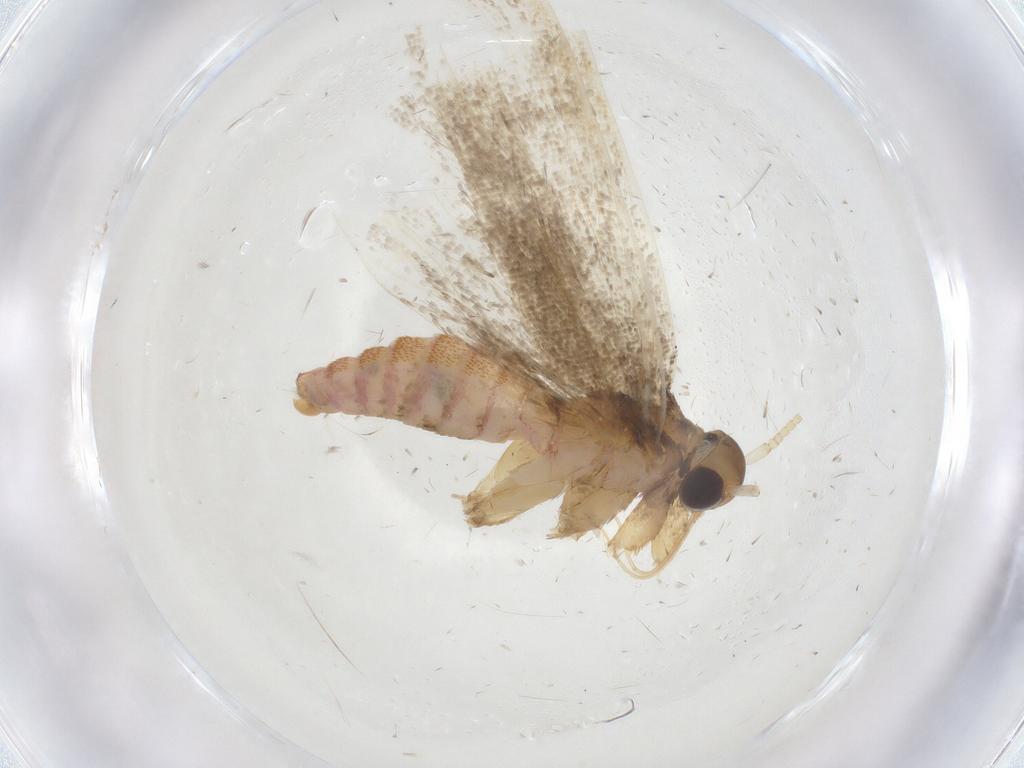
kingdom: Animalia
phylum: Arthropoda
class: Insecta
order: Lepidoptera
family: Lecithoceridae
